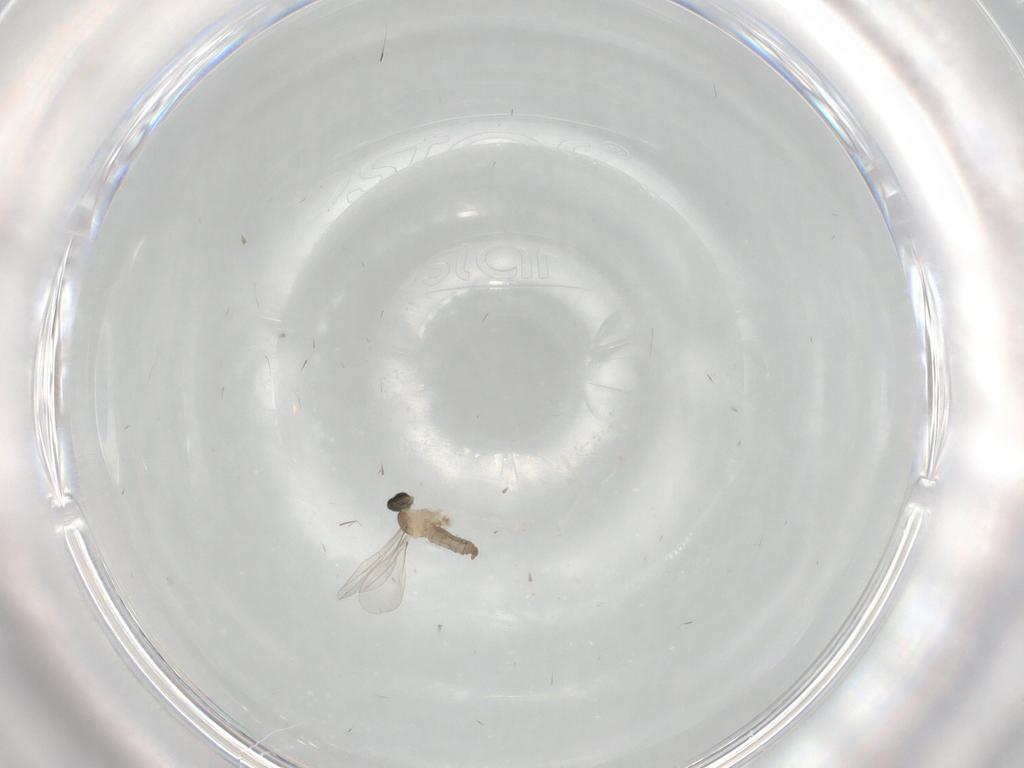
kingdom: Animalia
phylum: Arthropoda
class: Insecta
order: Diptera
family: Cecidomyiidae
